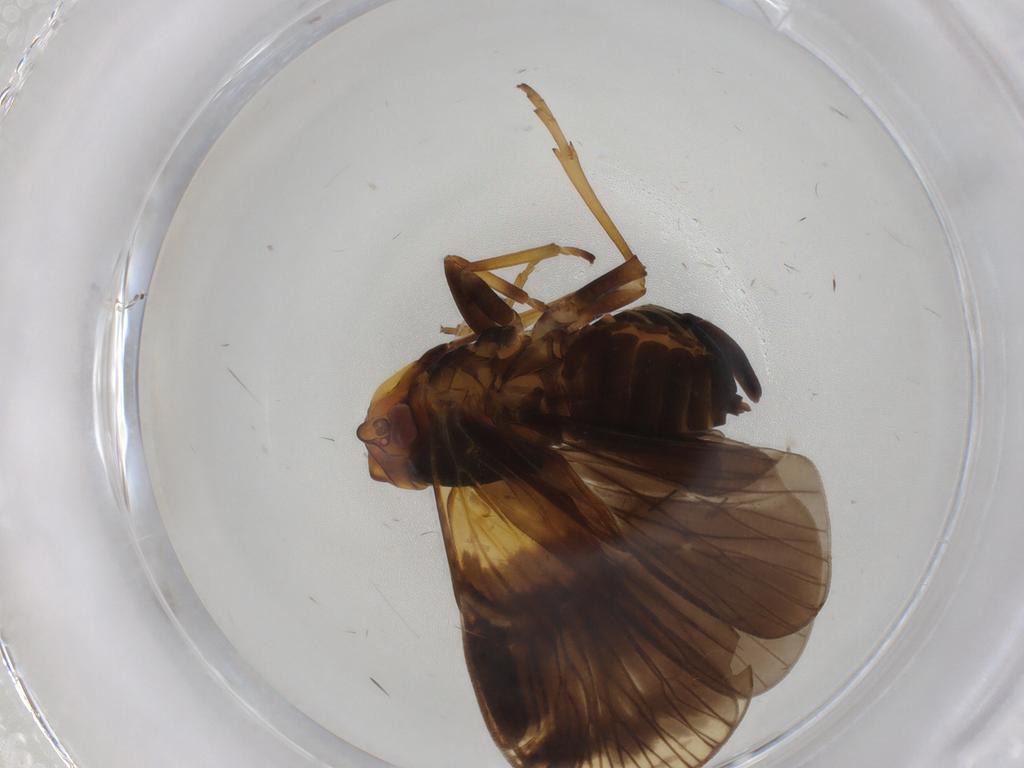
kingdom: Animalia
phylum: Arthropoda
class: Insecta
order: Hemiptera
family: Cixiidae
